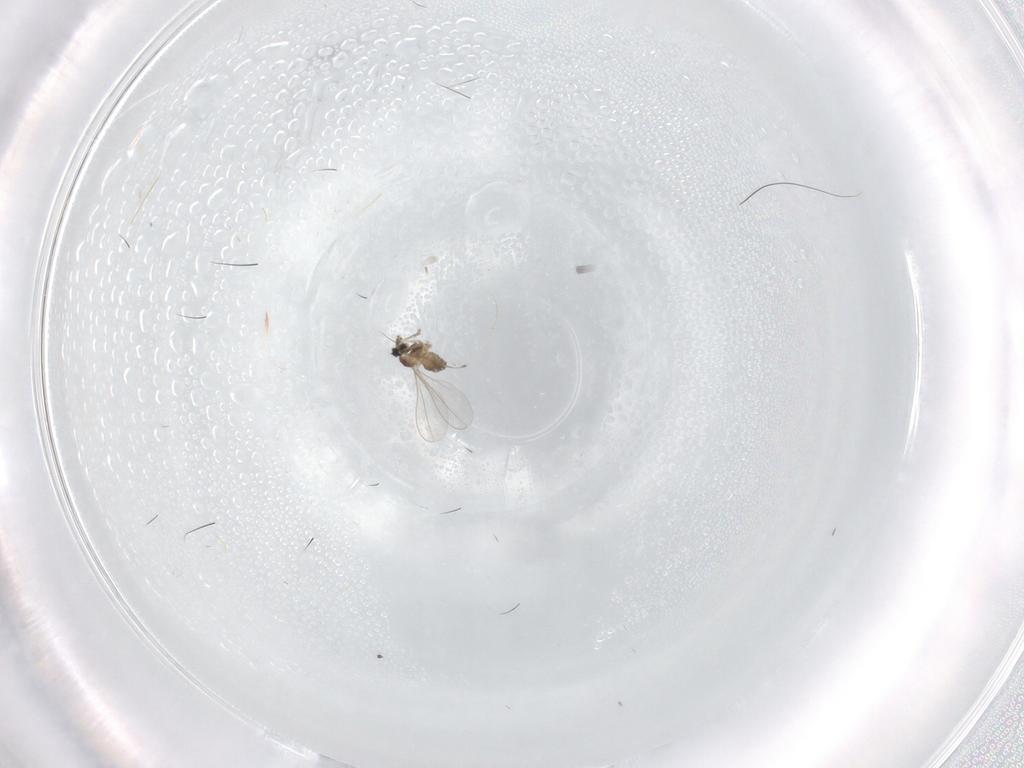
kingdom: Animalia
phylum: Arthropoda
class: Insecta
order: Diptera
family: Cecidomyiidae
